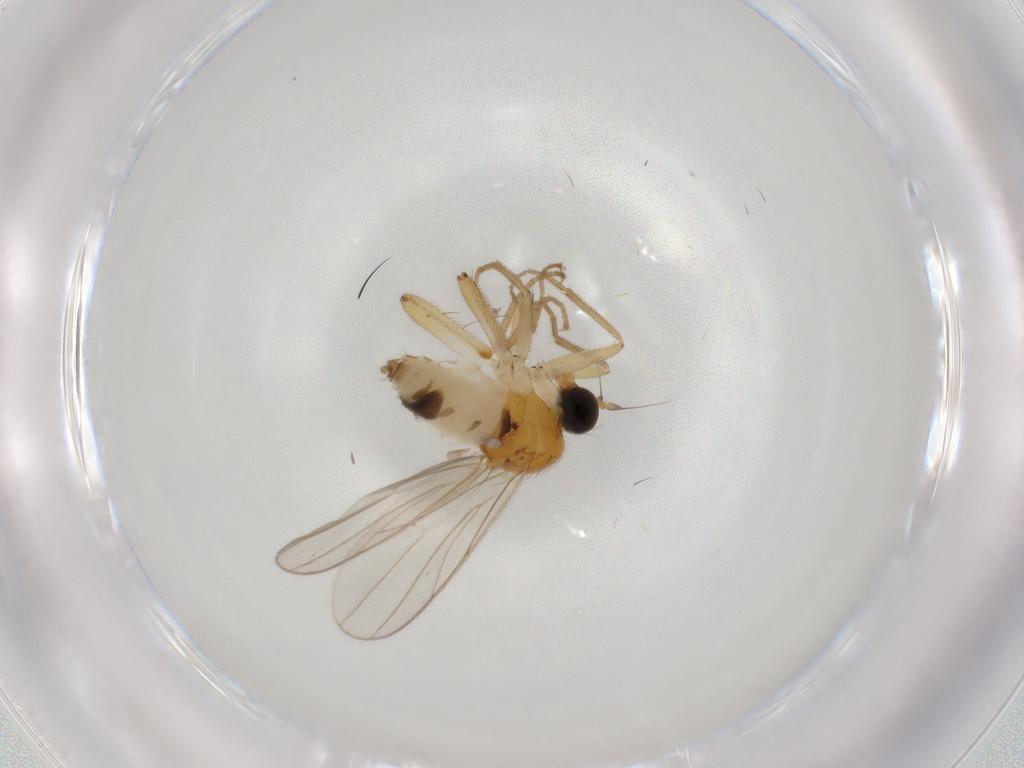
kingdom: Animalia
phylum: Arthropoda
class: Insecta
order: Diptera
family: Hybotidae
